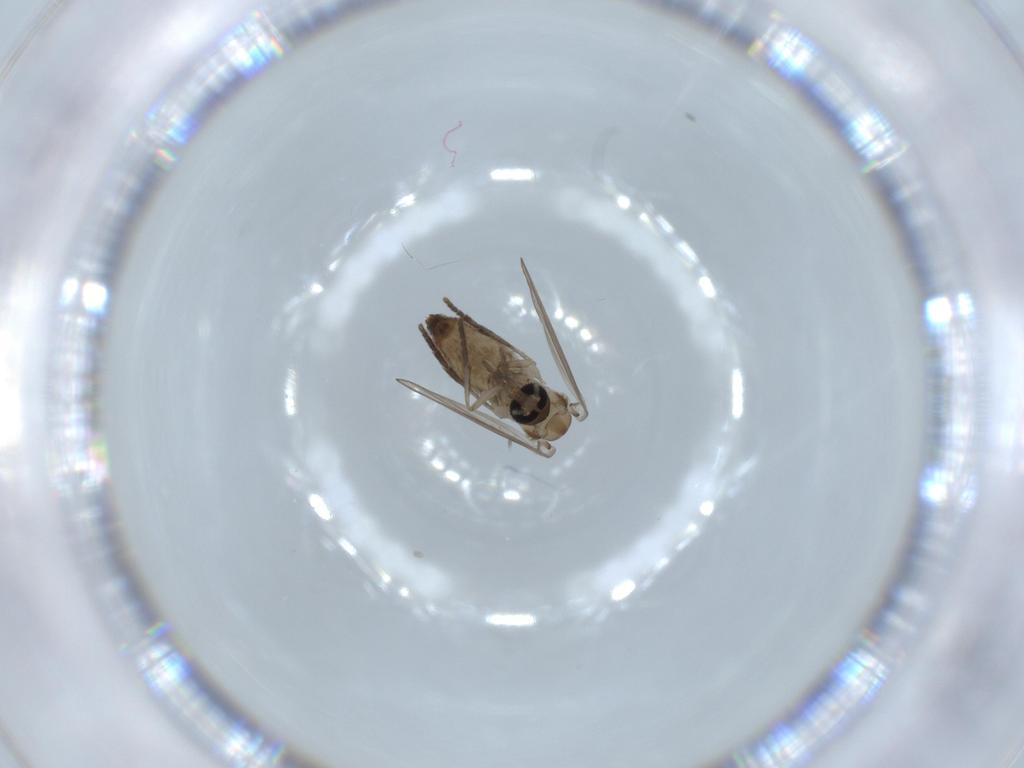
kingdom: Animalia
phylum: Arthropoda
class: Insecta
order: Diptera
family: Psychodidae
